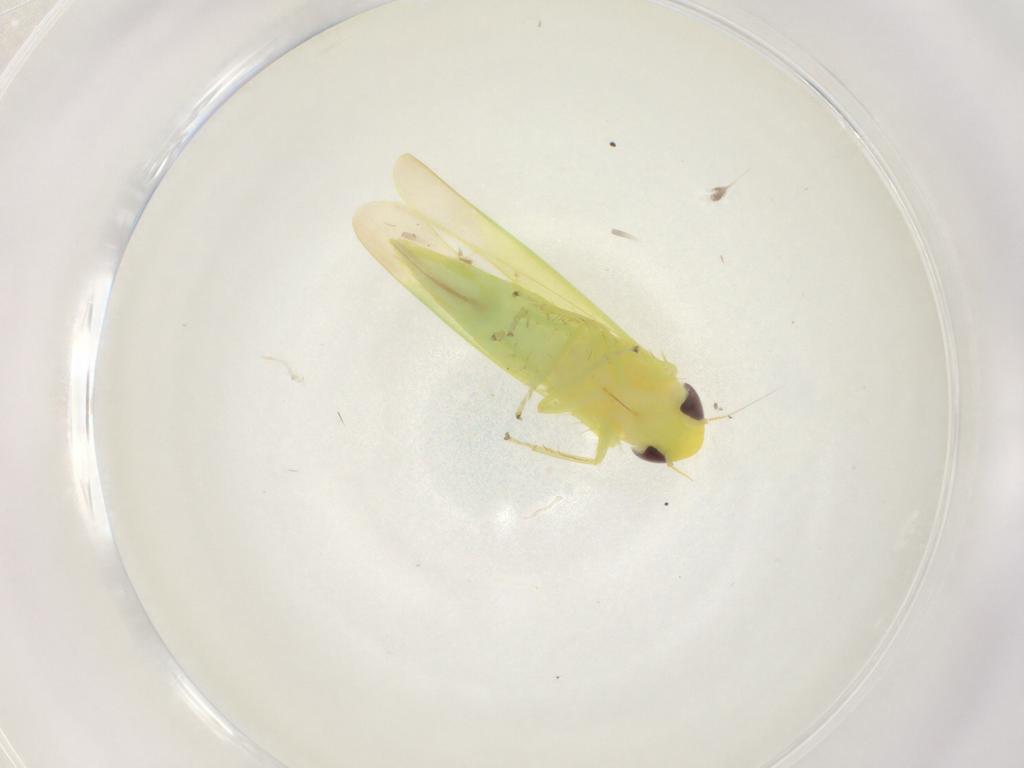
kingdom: Animalia
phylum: Arthropoda
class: Insecta
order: Hemiptera
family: Cicadellidae
